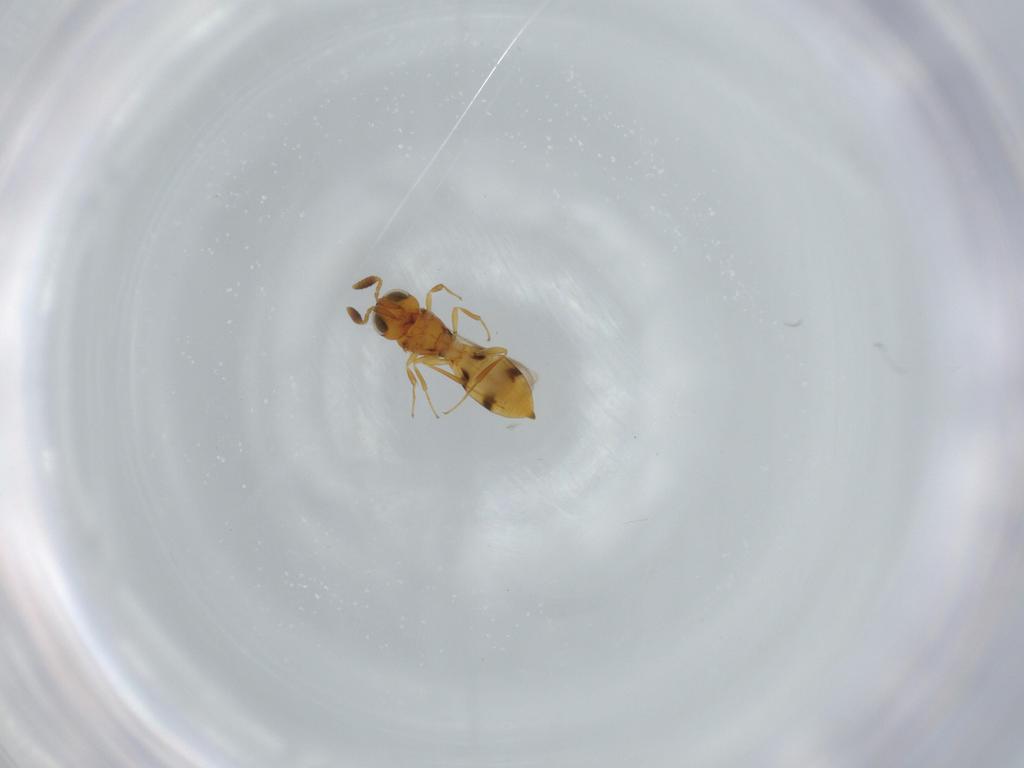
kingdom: Animalia
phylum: Arthropoda
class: Insecta
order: Hymenoptera
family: Scelionidae
